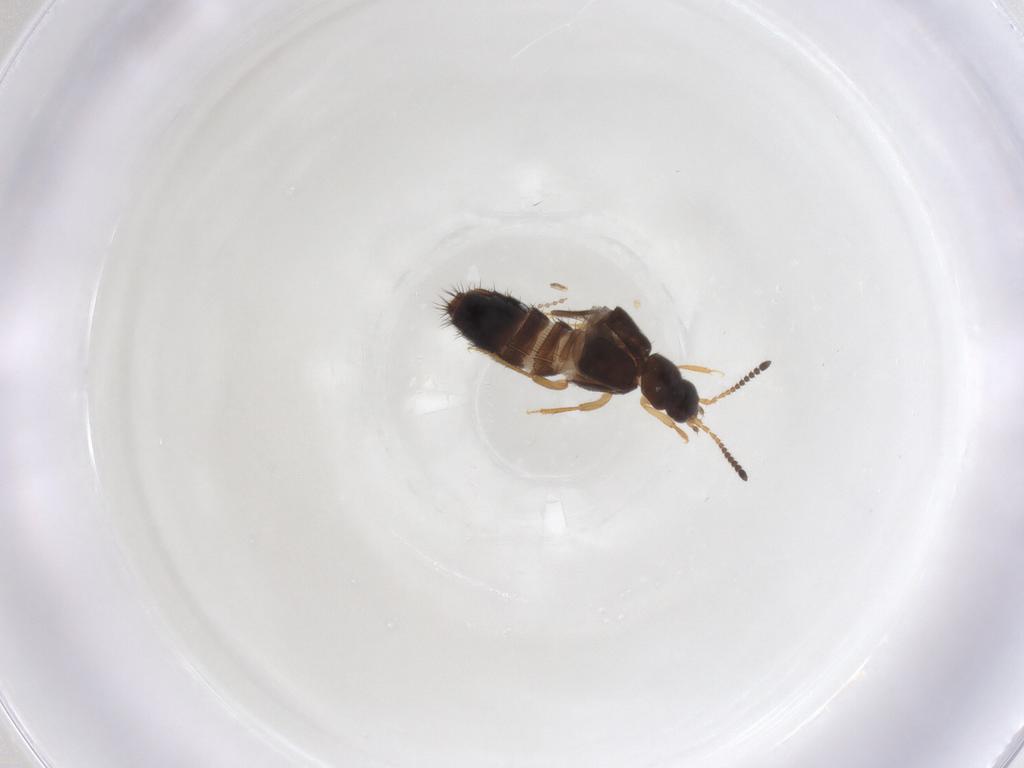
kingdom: Animalia
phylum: Arthropoda
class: Insecta
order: Coleoptera
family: Staphylinidae
